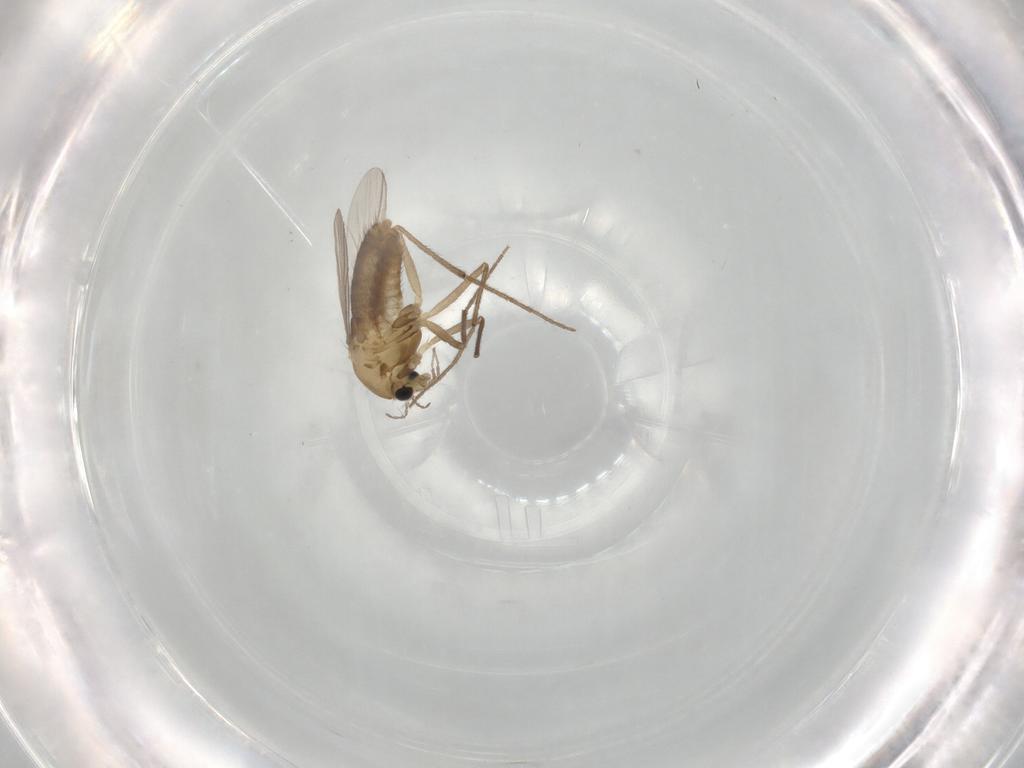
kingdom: Animalia
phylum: Arthropoda
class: Insecta
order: Diptera
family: Chironomidae
